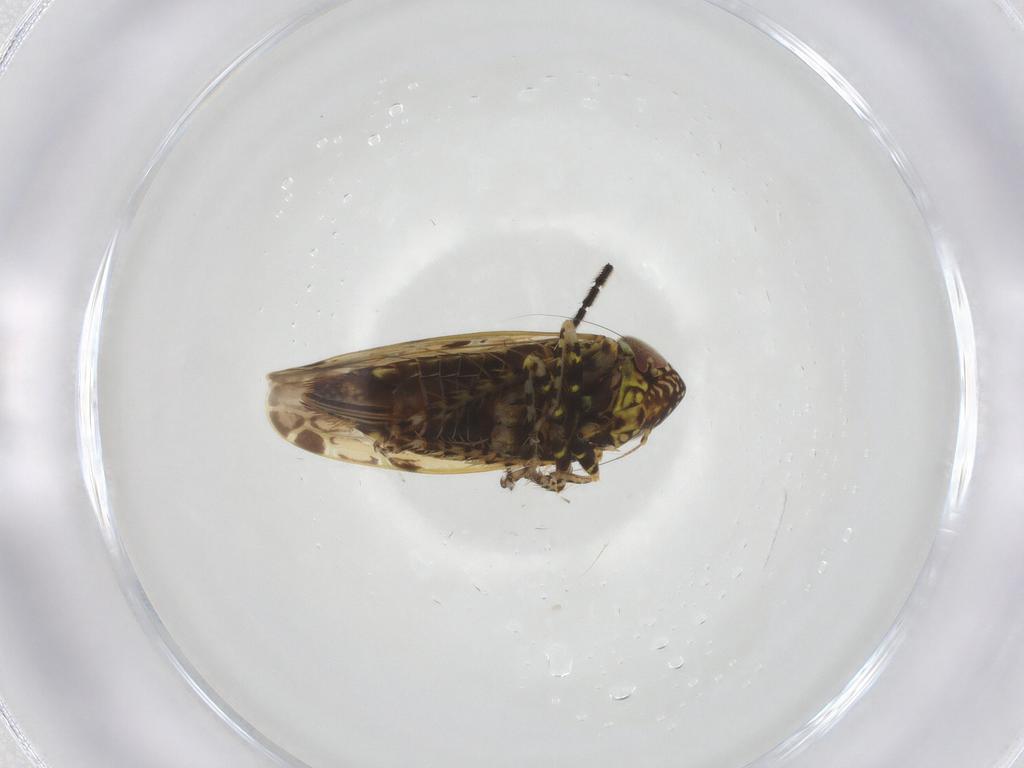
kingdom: Animalia
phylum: Arthropoda
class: Insecta
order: Hemiptera
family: Cicadellidae
